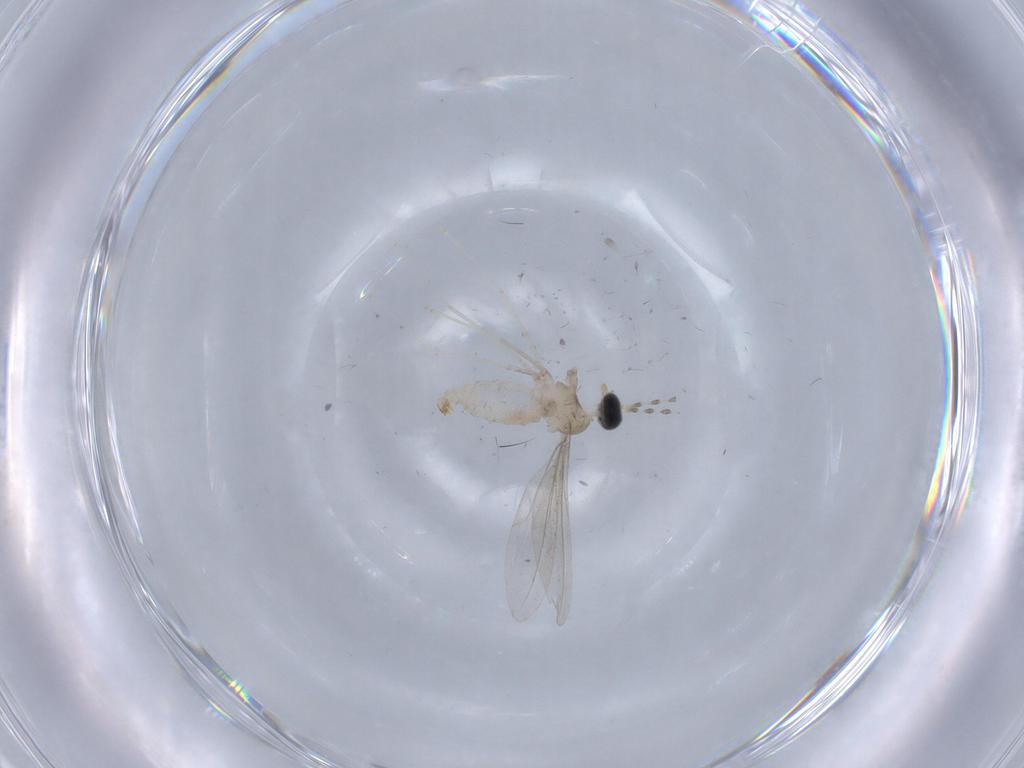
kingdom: Animalia
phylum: Arthropoda
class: Insecta
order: Diptera
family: Cecidomyiidae
